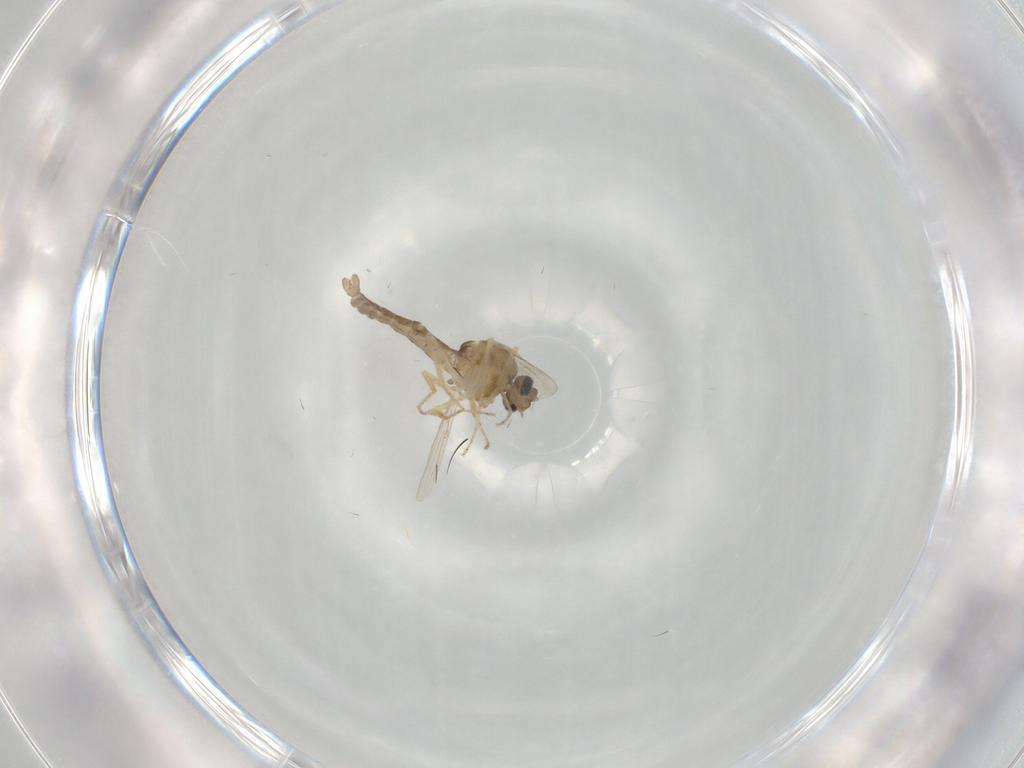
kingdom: Animalia
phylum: Arthropoda
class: Insecta
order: Diptera
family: Ceratopogonidae
